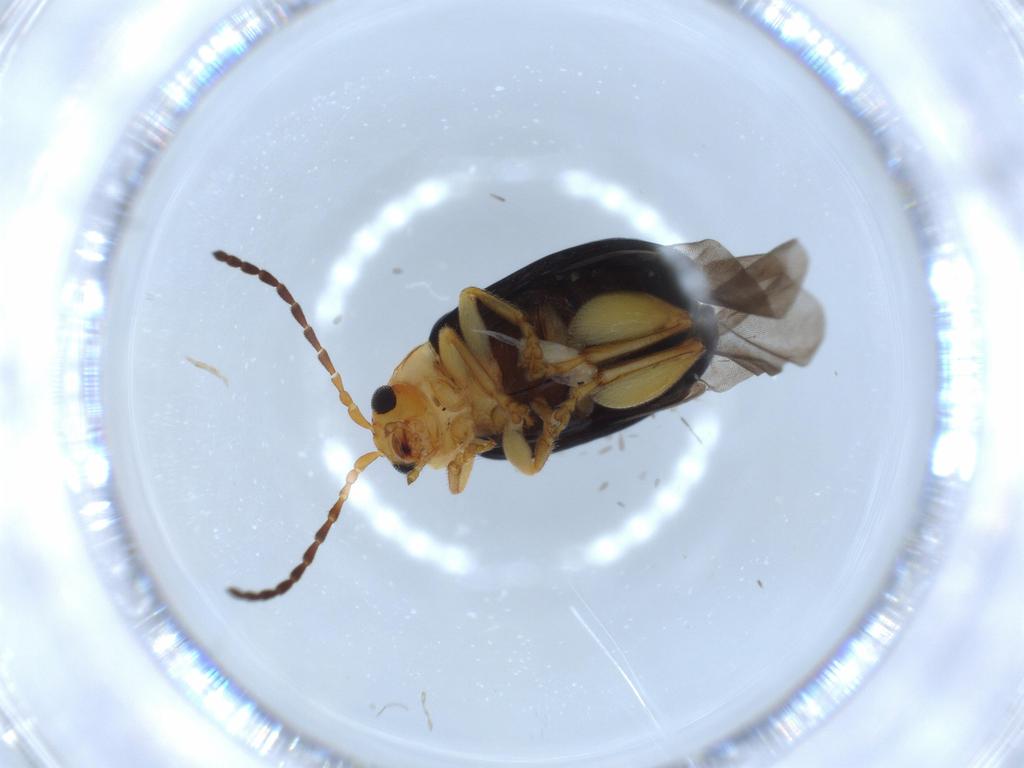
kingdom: Animalia
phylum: Arthropoda
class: Insecta
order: Coleoptera
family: Chrysomelidae
